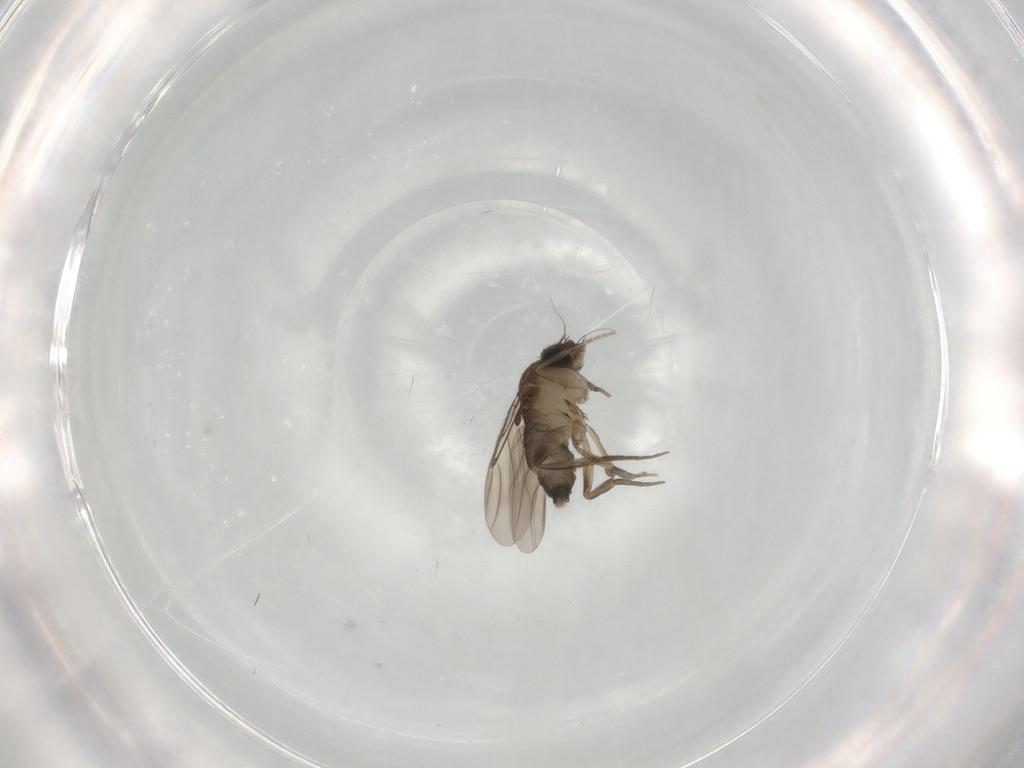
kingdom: Animalia
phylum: Arthropoda
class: Insecta
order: Diptera
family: Phoridae
